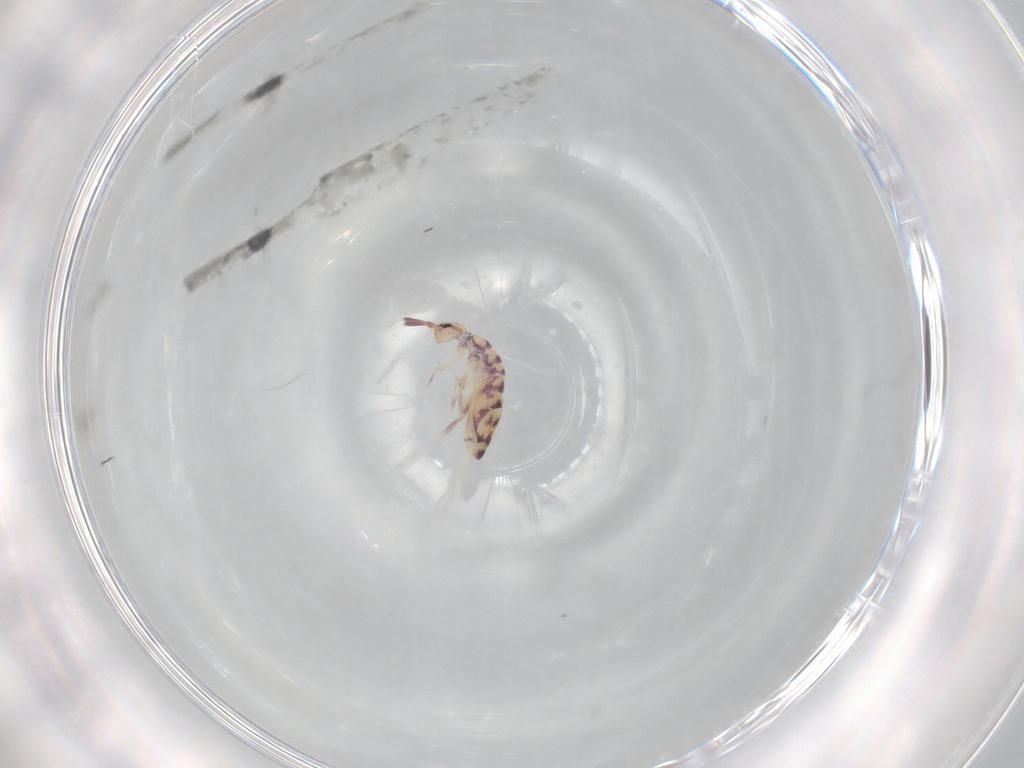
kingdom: Animalia
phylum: Arthropoda
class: Collembola
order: Entomobryomorpha
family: Entomobryidae
